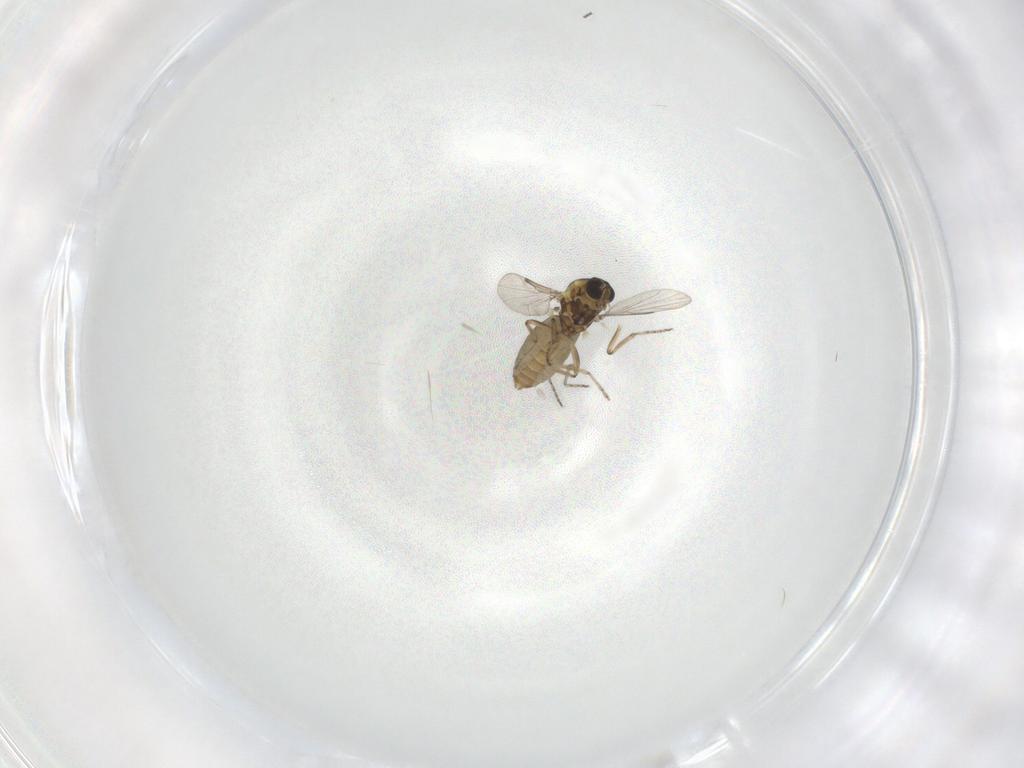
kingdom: Animalia
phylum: Arthropoda
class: Insecta
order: Diptera
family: Ceratopogonidae
